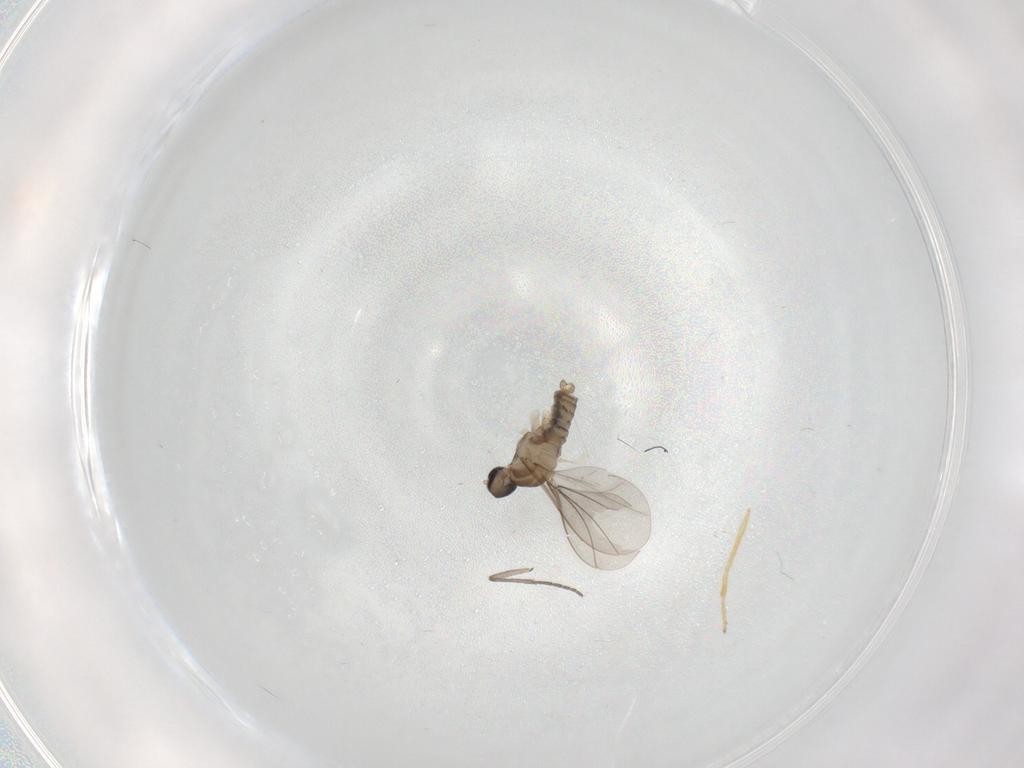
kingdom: Animalia
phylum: Arthropoda
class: Insecta
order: Diptera
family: Cecidomyiidae
